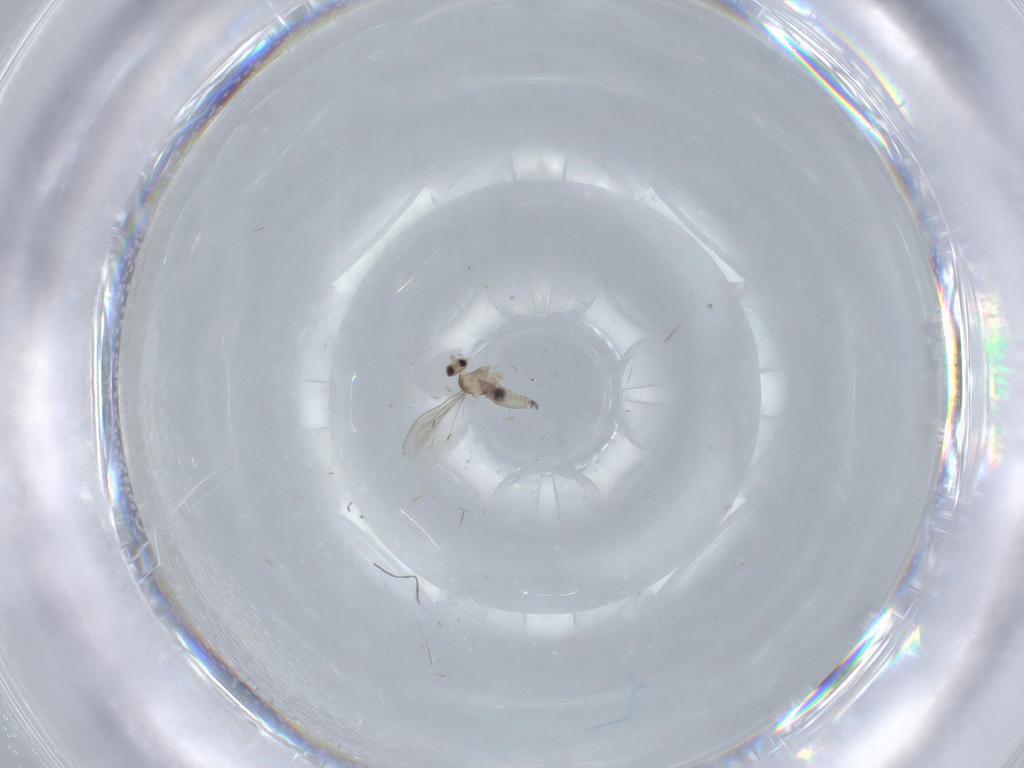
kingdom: Animalia
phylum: Arthropoda
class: Insecta
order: Diptera
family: Cecidomyiidae
